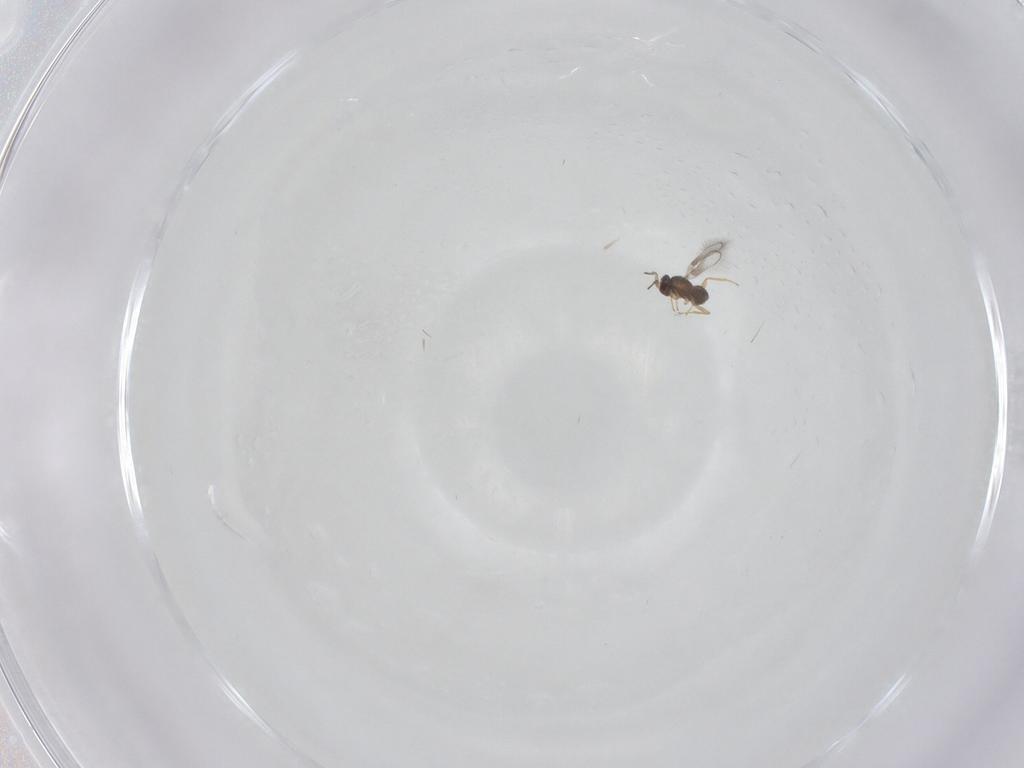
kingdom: Animalia
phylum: Arthropoda
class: Insecta
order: Hymenoptera
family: Mymaridae
